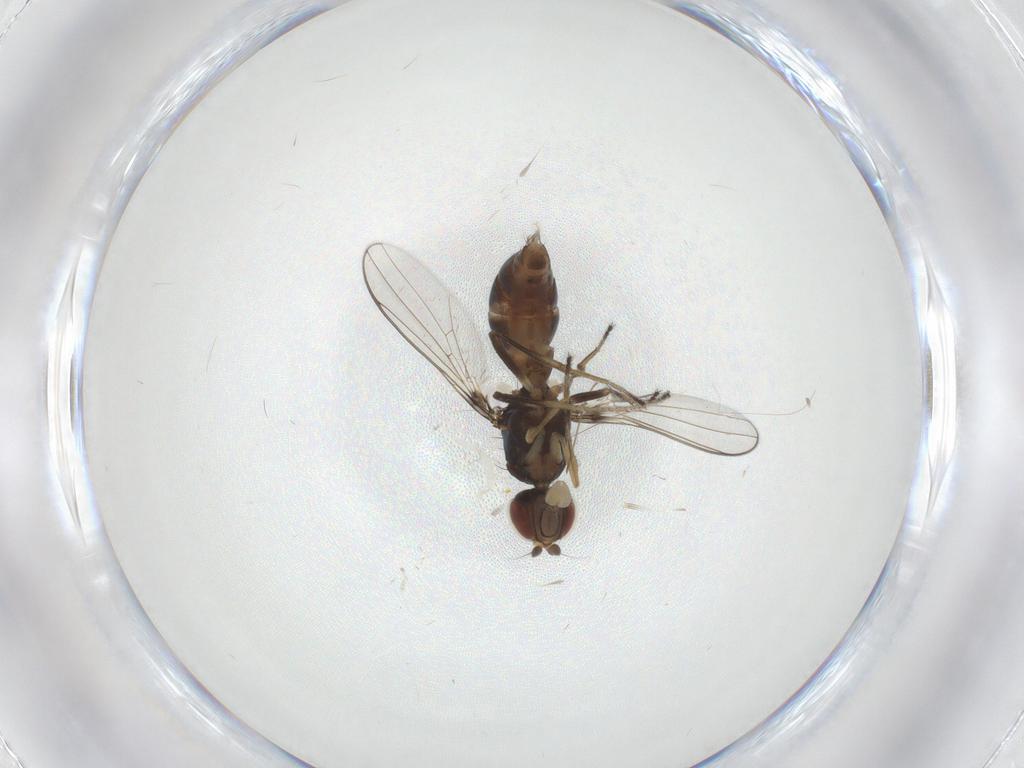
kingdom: Animalia
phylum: Arthropoda
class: Insecta
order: Diptera
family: Sepsidae
